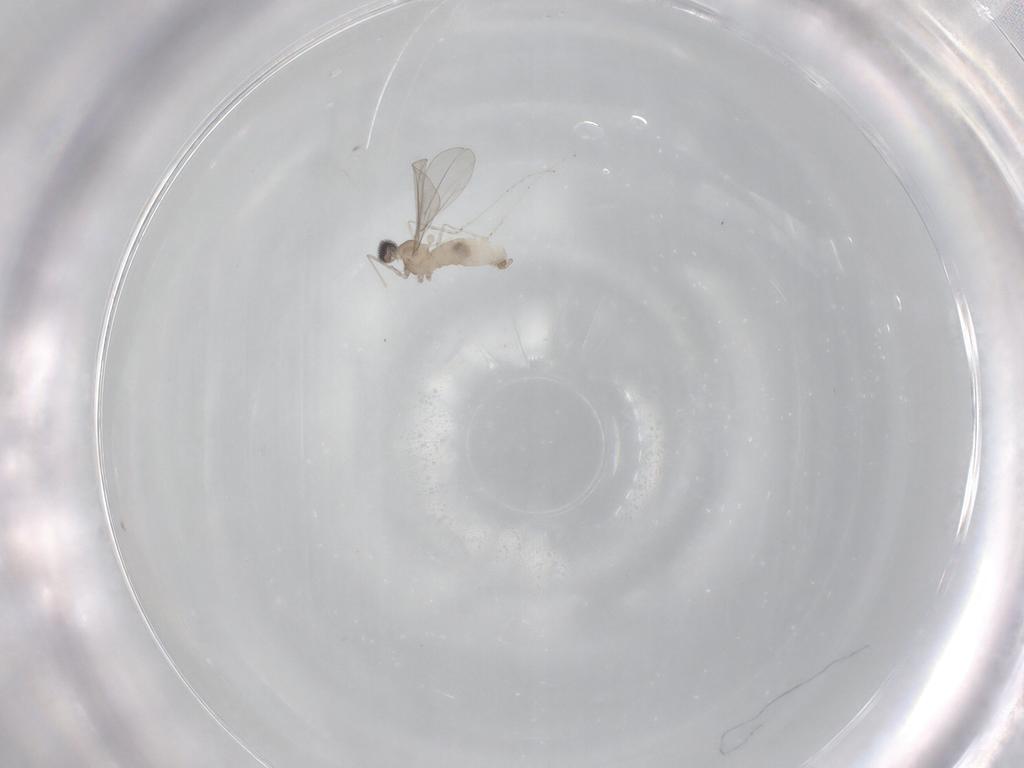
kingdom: Animalia
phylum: Arthropoda
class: Insecta
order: Diptera
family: Cecidomyiidae
